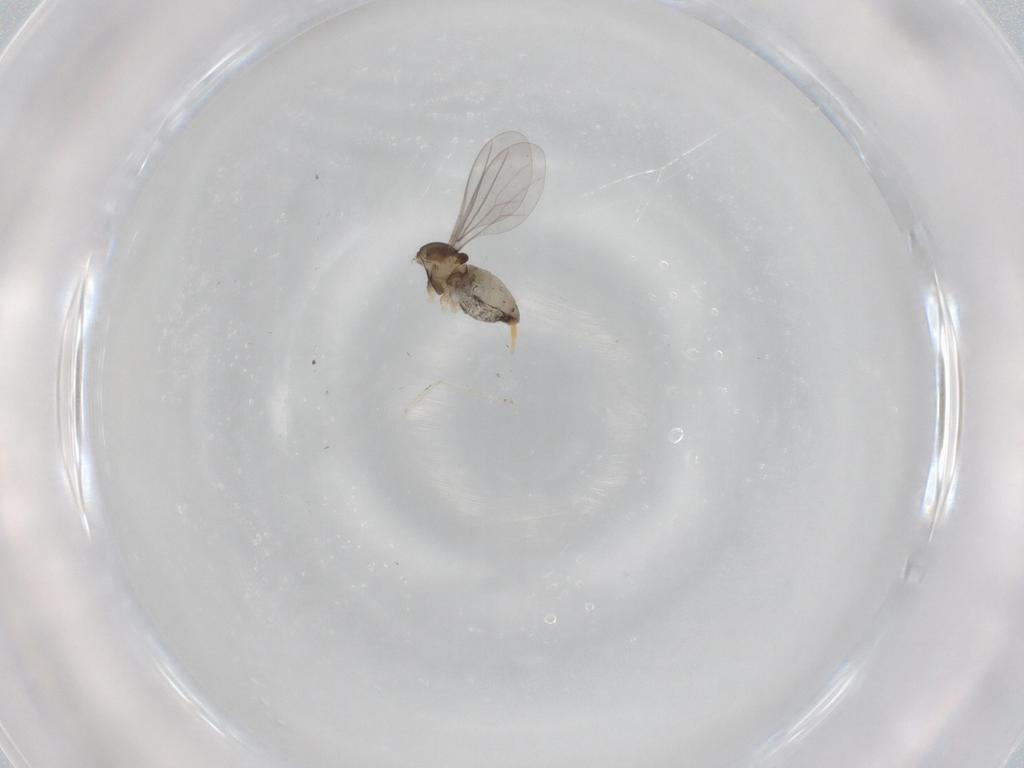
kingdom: Animalia
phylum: Arthropoda
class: Insecta
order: Diptera
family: Cecidomyiidae
